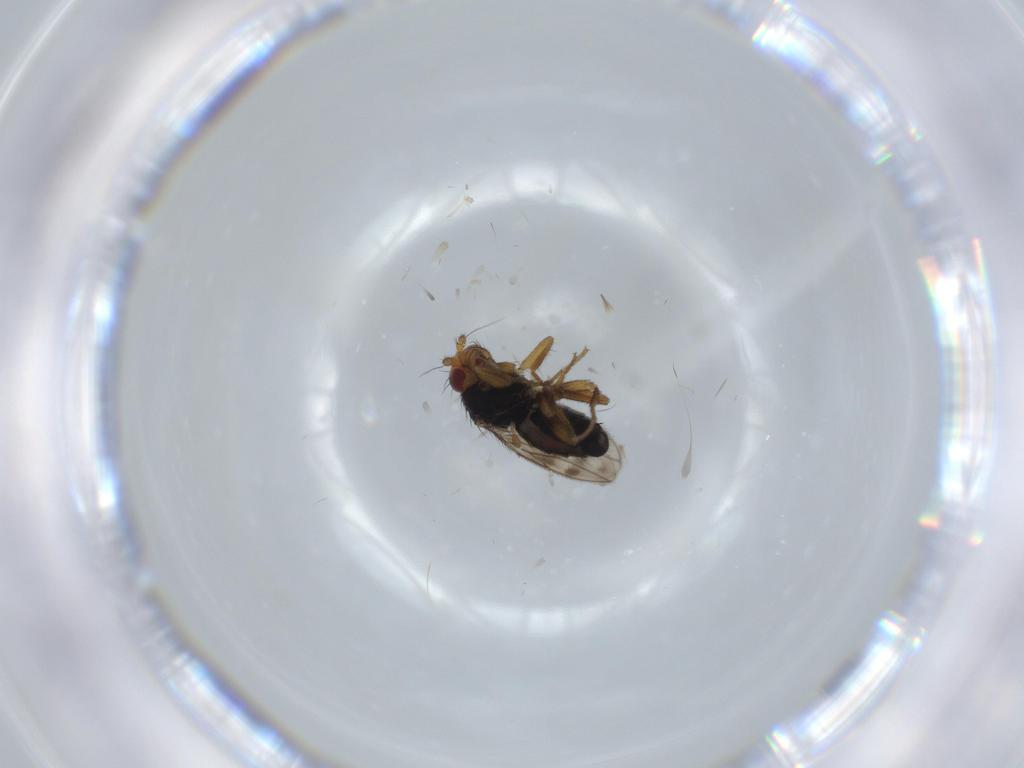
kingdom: Animalia
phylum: Arthropoda
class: Insecta
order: Diptera
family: Sphaeroceridae
